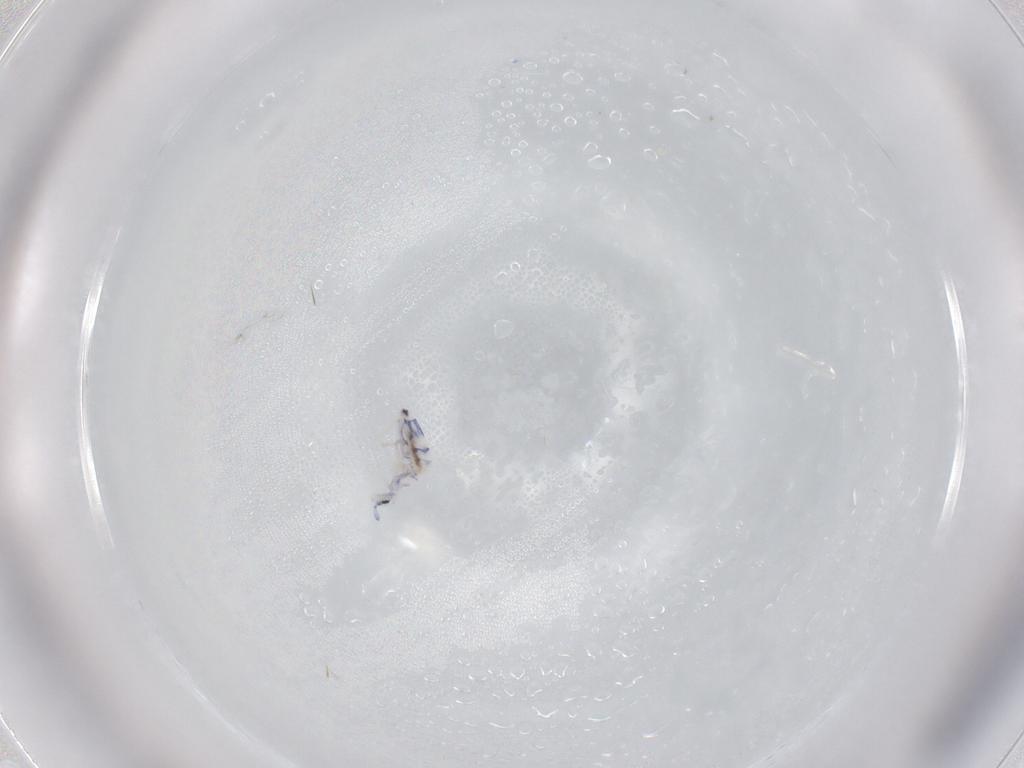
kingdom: Animalia
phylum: Arthropoda
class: Collembola
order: Entomobryomorpha
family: Entomobryidae
